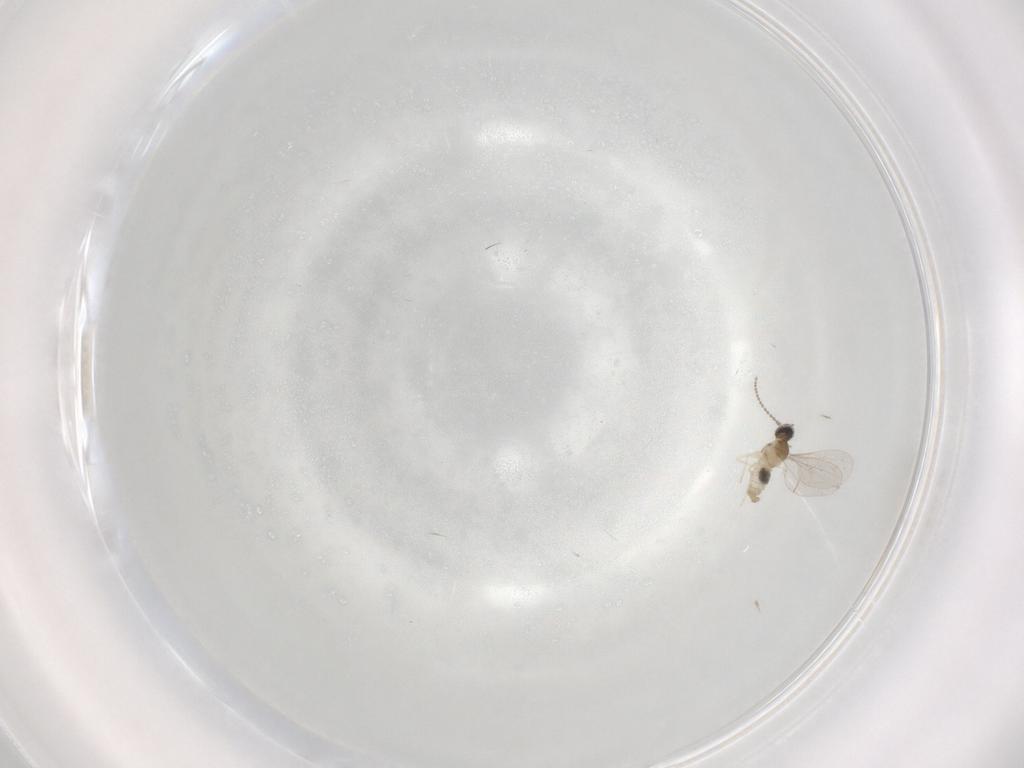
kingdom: Animalia
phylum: Arthropoda
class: Insecta
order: Diptera
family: Cecidomyiidae
